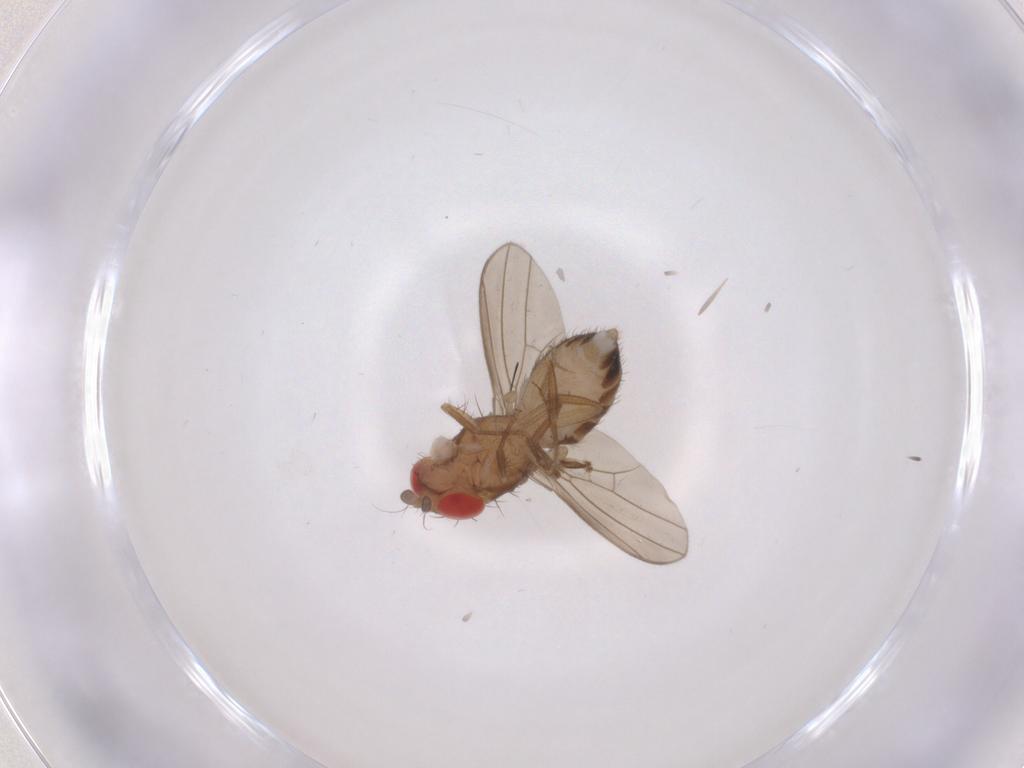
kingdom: Animalia
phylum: Arthropoda
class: Insecta
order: Diptera
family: Drosophilidae
